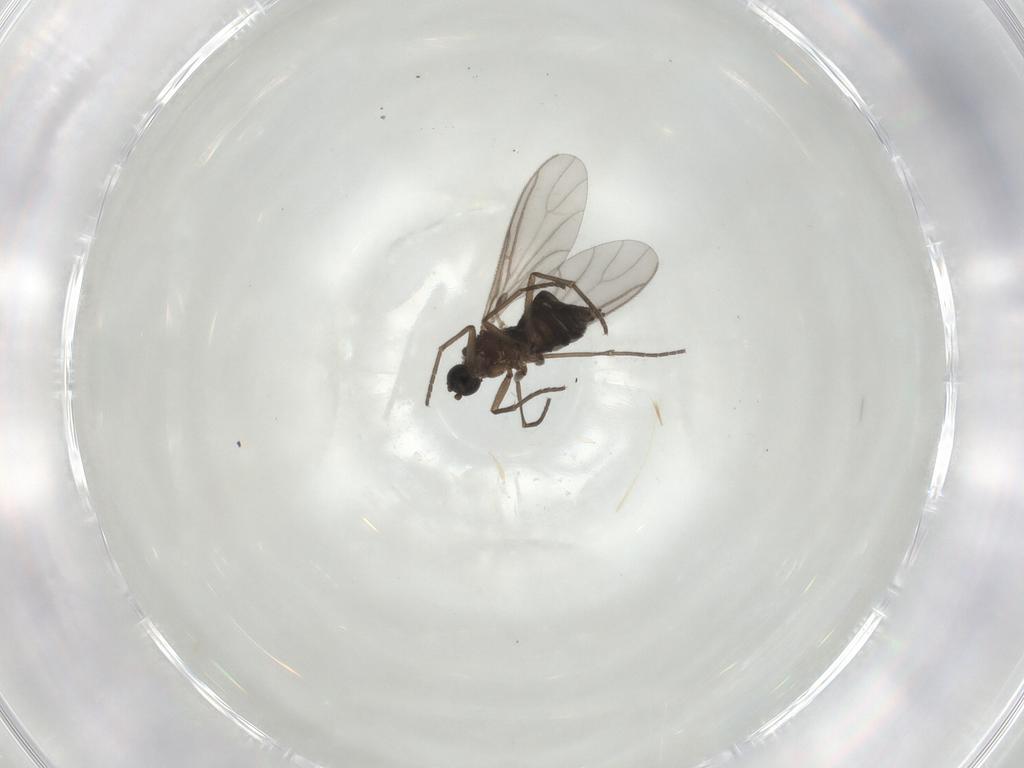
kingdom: Animalia
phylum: Arthropoda
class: Insecta
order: Diptera
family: Sciaridae
